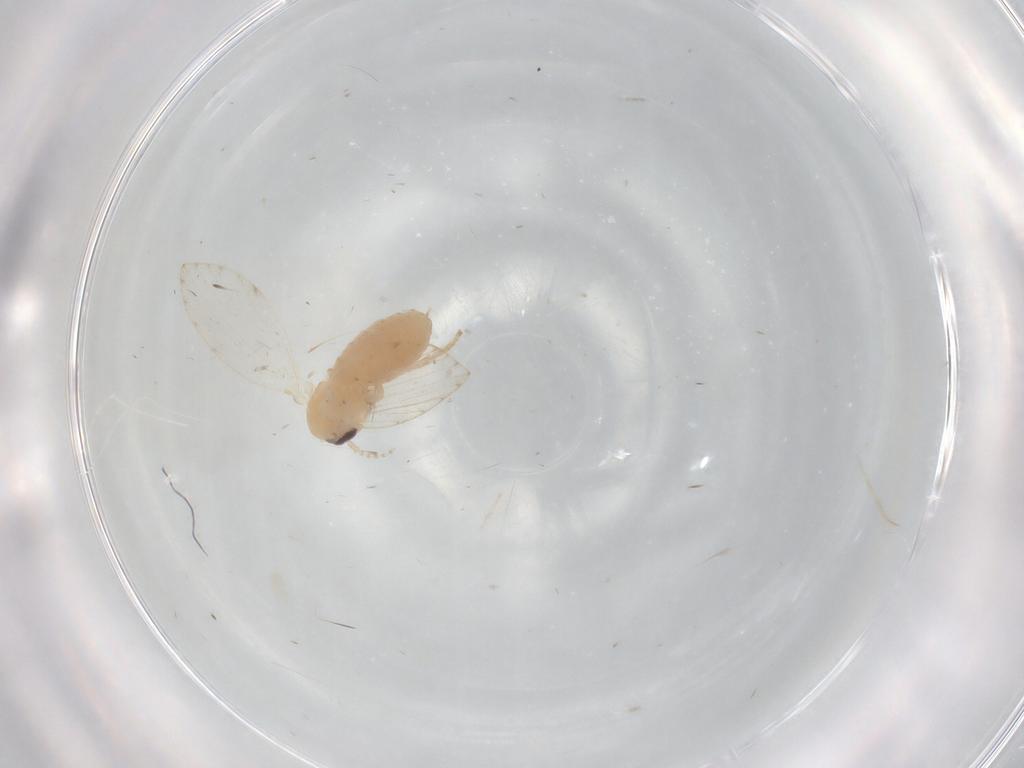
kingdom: Animalia
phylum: Arthropoda
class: Insecta
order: Diptera
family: Psychodidae
